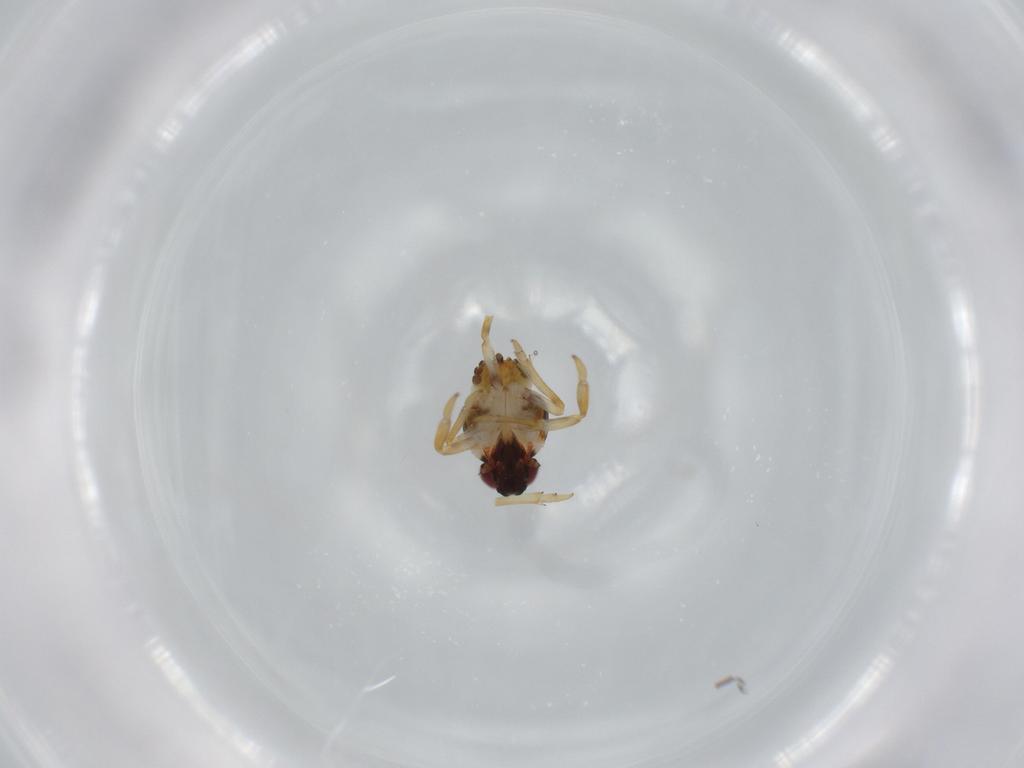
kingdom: Animalia
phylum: Arthropoda
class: Insecta
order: Hemiptera
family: Issidae
